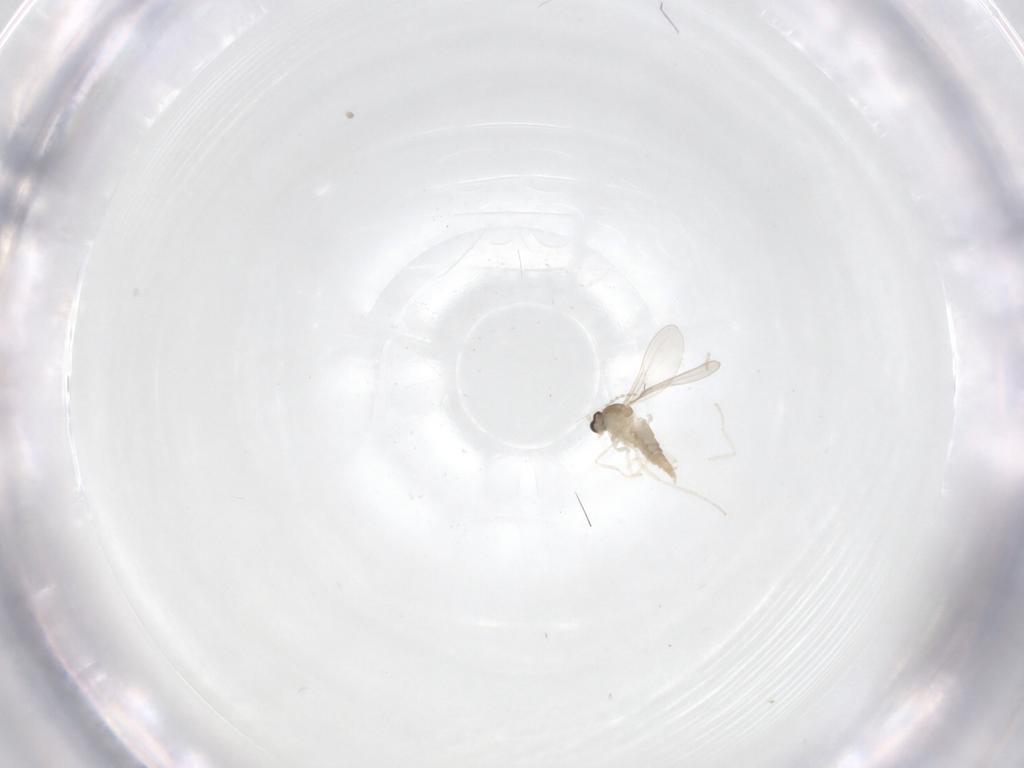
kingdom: Animalia
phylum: Arthropoda
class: Insecta
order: Diptera
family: Cecidomyiidae
